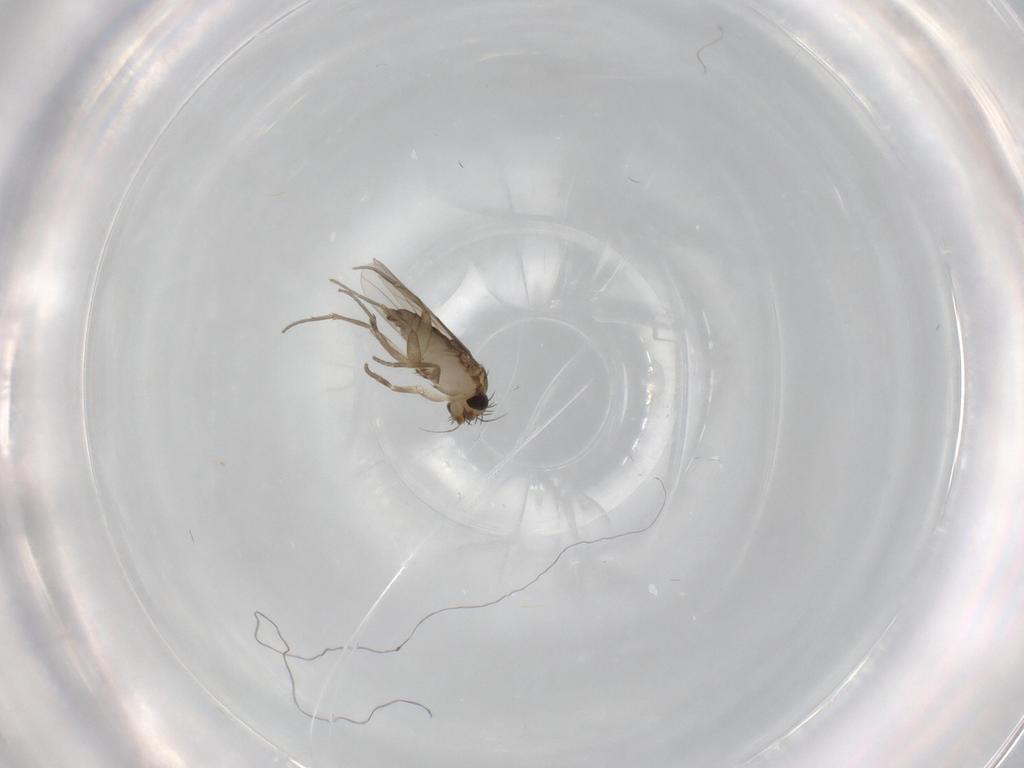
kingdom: Animalia
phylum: Arthropoda
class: Insecta
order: Diptera
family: Phoridae
